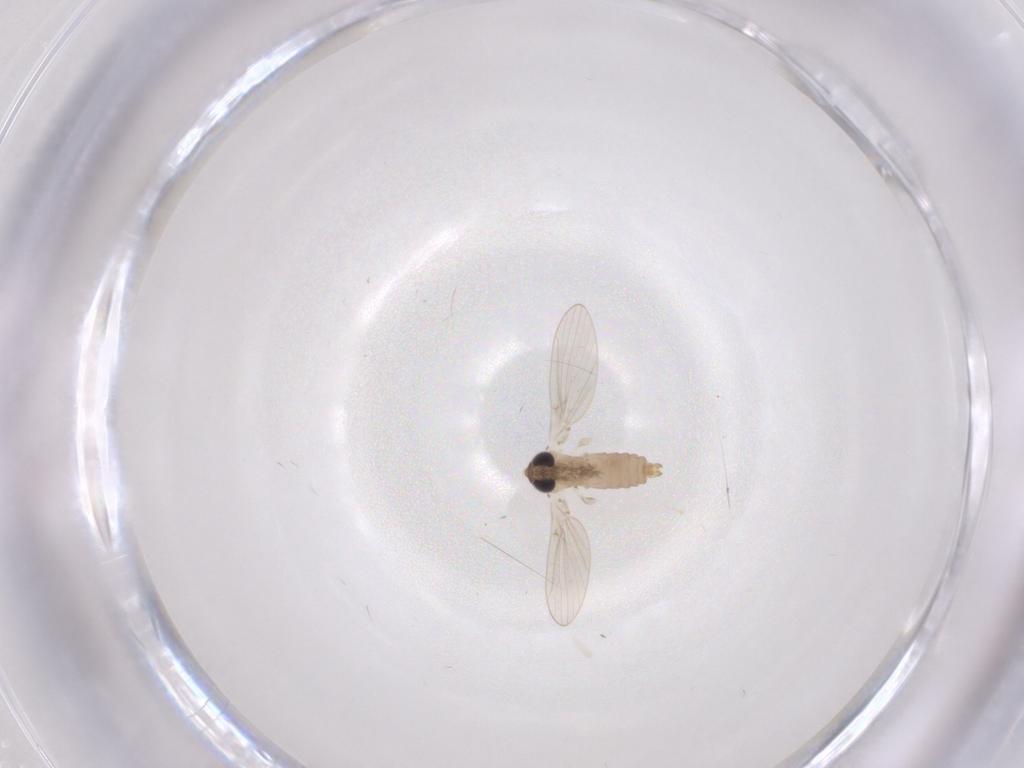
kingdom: Animalia
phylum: Arthropoda
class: Insecta
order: Diptera
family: Psychodidae
